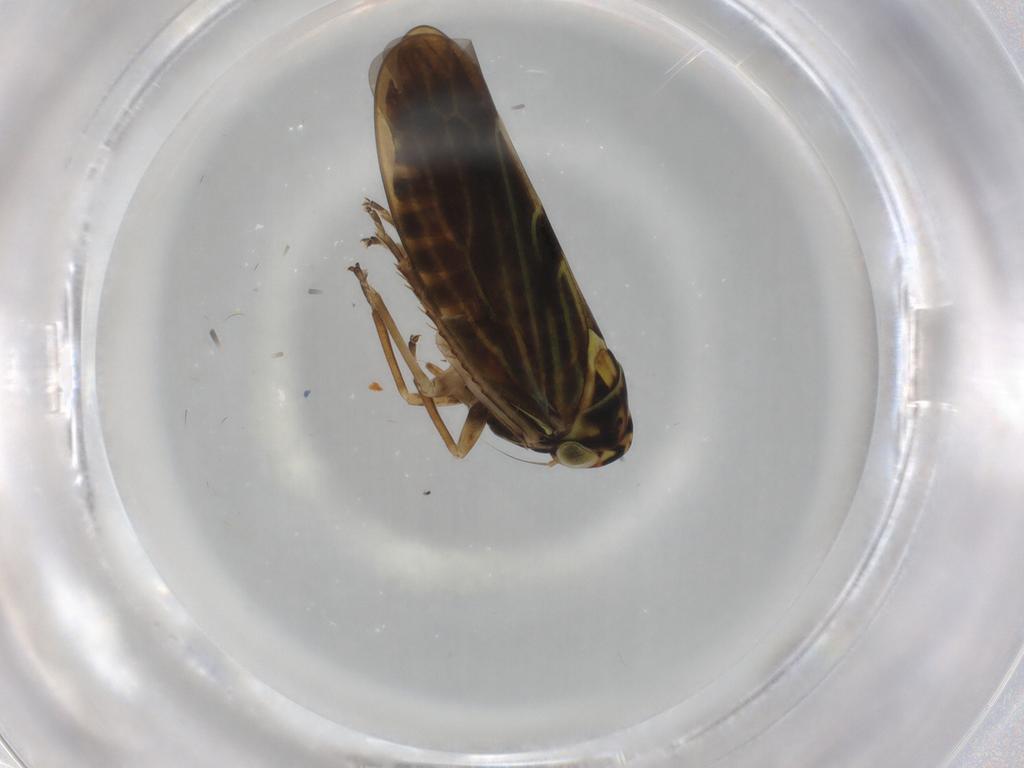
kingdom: Animalia
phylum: Arthropoda
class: Insecta
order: Hemiptera
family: Cicadellidae
